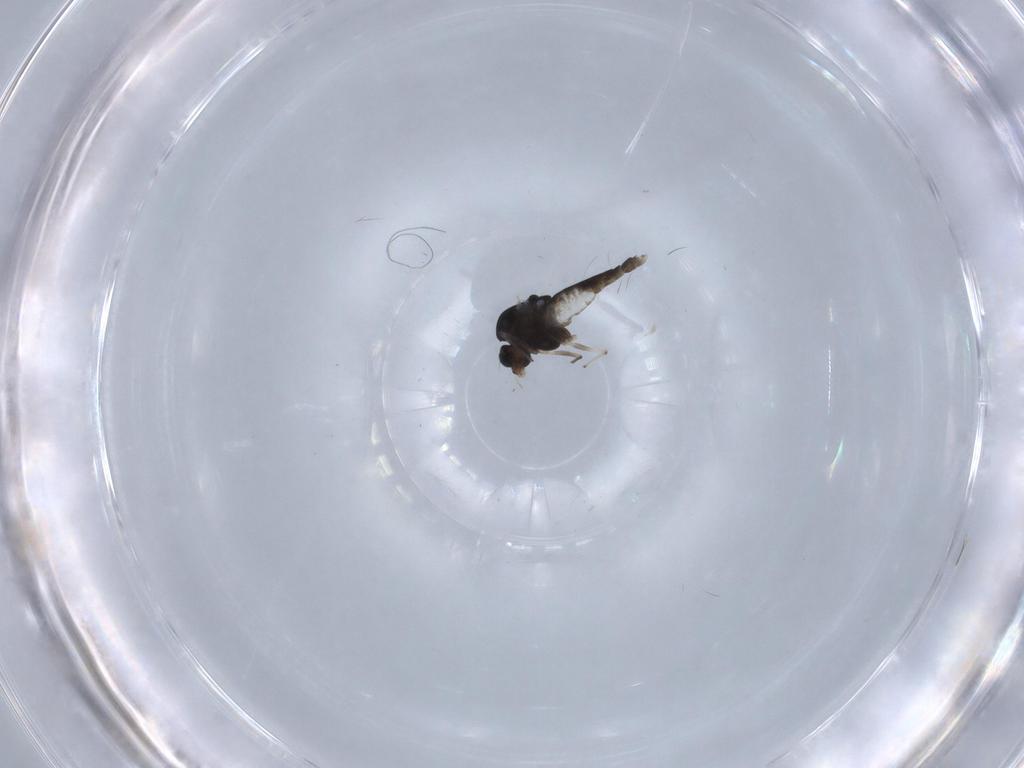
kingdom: Animalia
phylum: Arthropoda
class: Insecta
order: Diptera
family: Chironomidae
